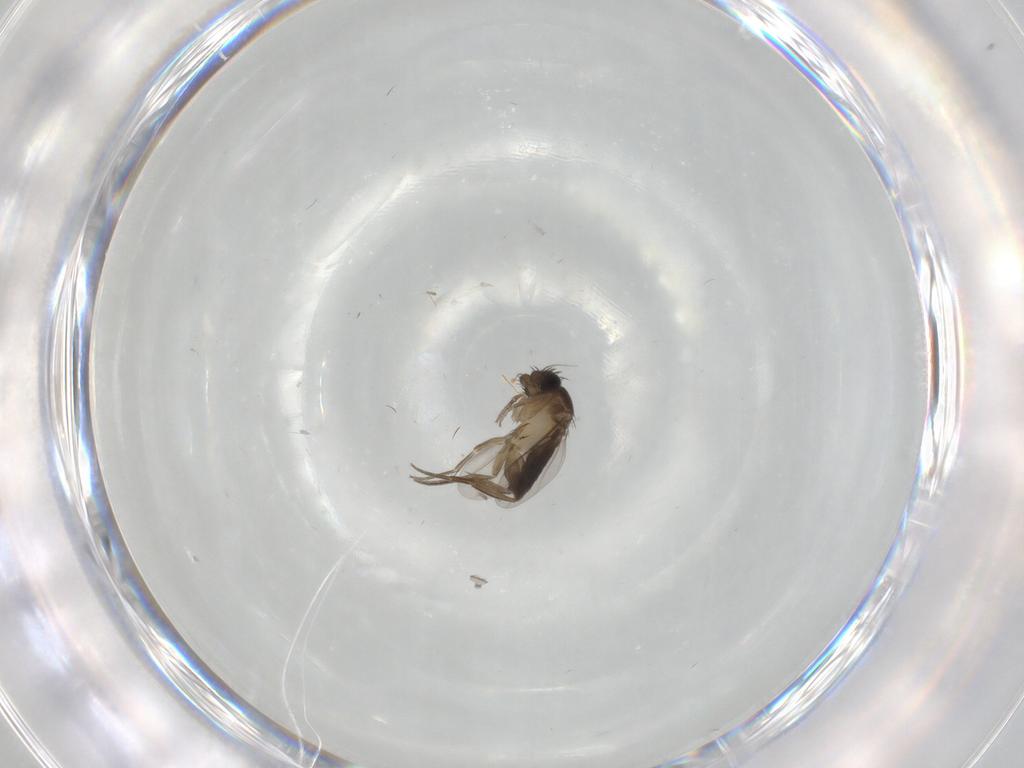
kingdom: Animalia
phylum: Arthropoda
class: Insecta
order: Diptera
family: Phoridae
